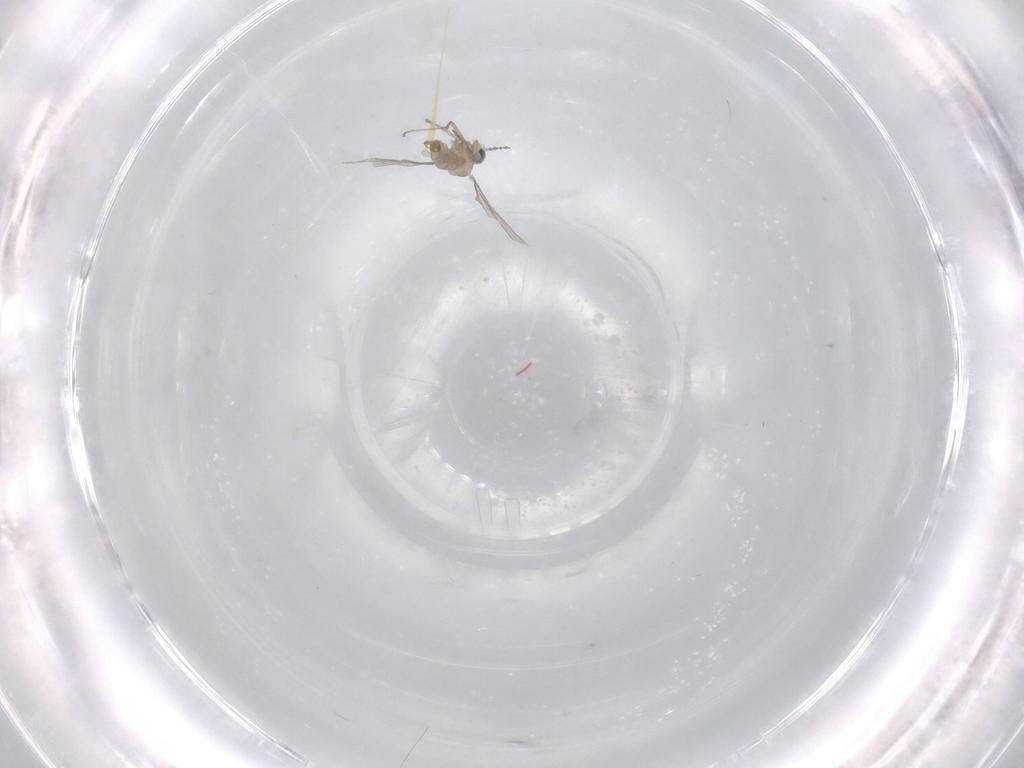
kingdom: Animalia
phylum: Arthropoda
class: Insecta
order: Diptera
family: Cecidomyiidae
